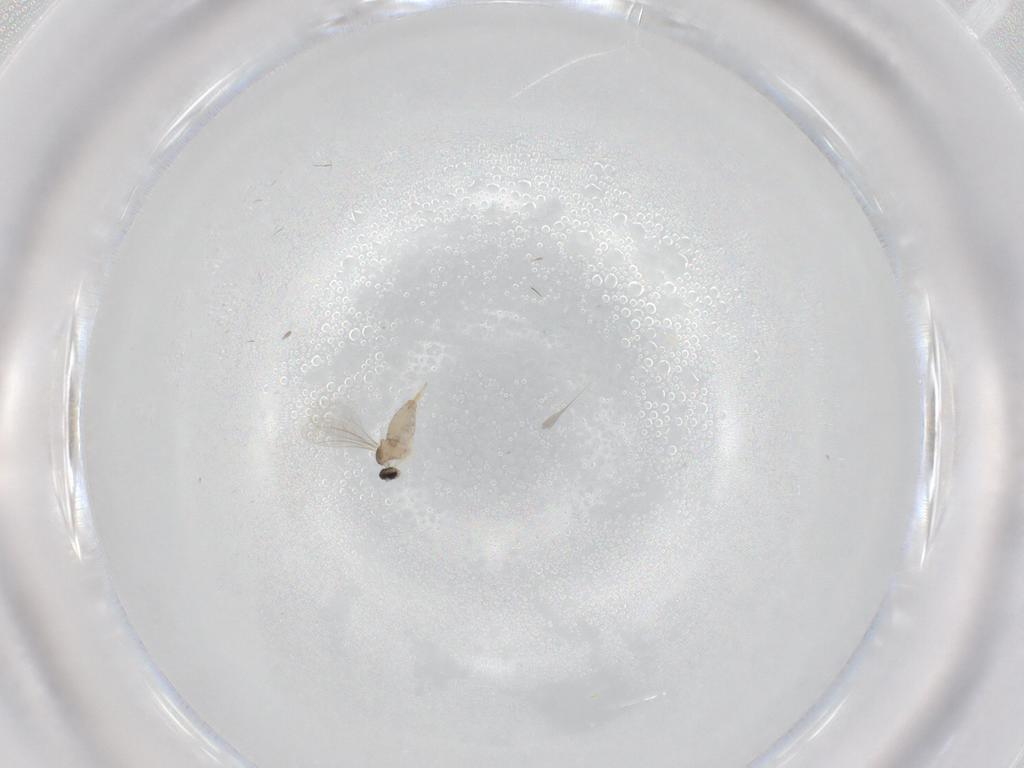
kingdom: Animalia
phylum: Arthropoda
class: Insecta
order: Diptera
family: Cecidomyiidae
